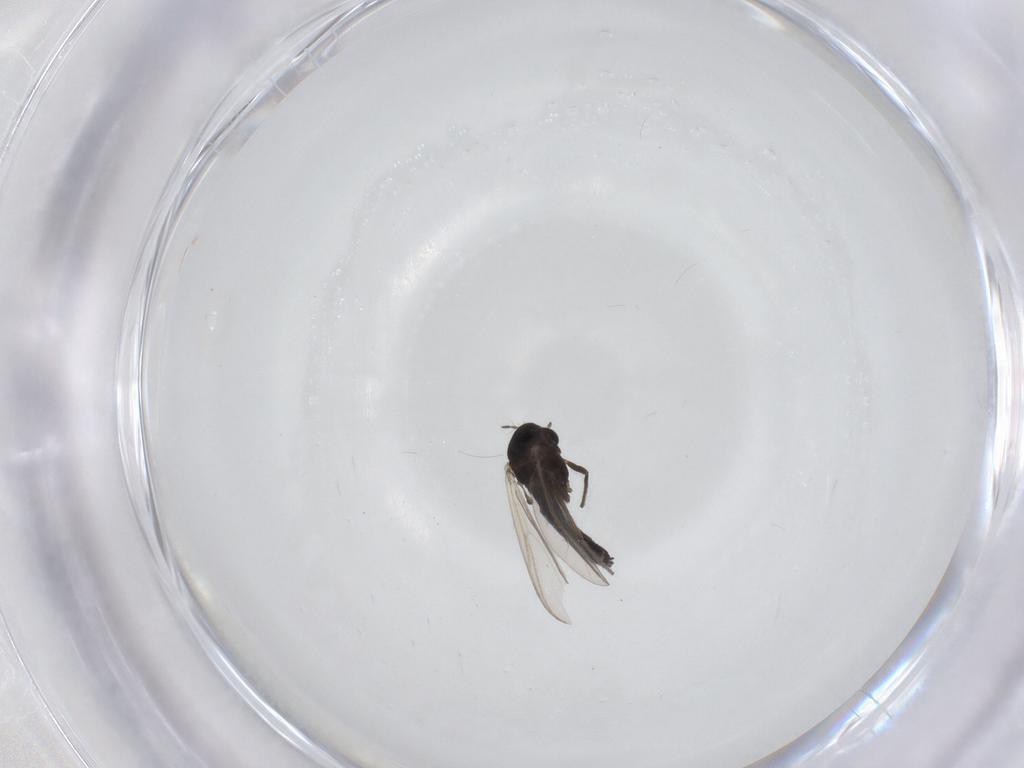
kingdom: Animalia
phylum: Arthropoda
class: Insecta
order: Diptera
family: Chironomidae
